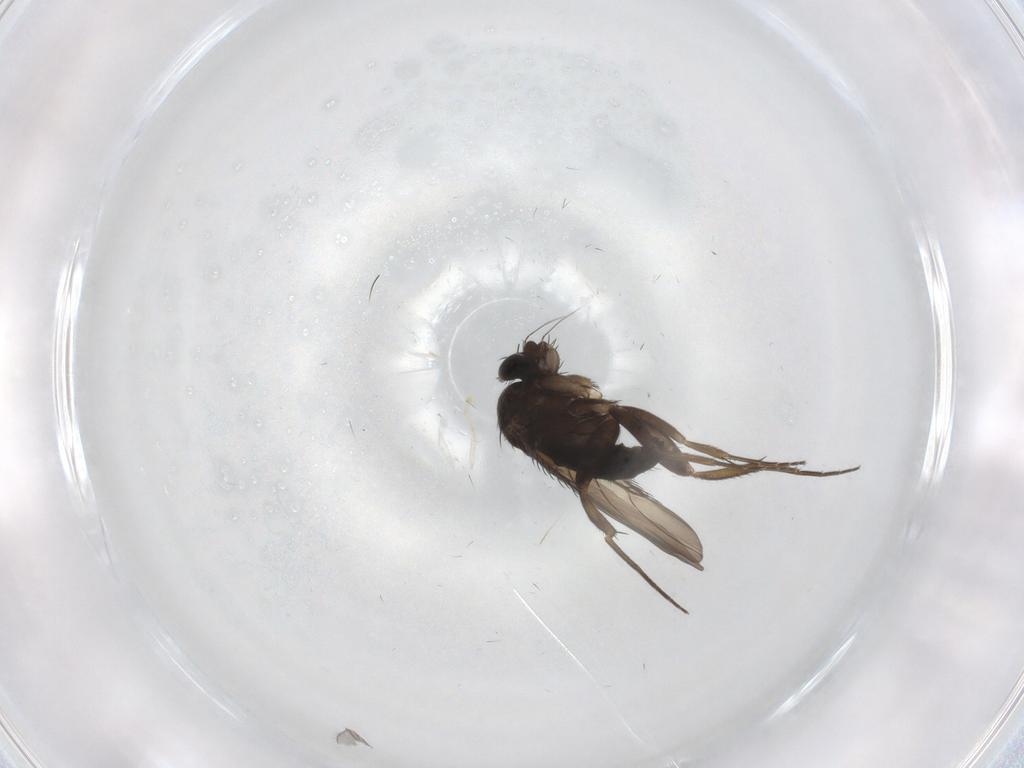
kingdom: Animalia
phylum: Arthropoda
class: Insecta
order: Diptera
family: Phoridae
